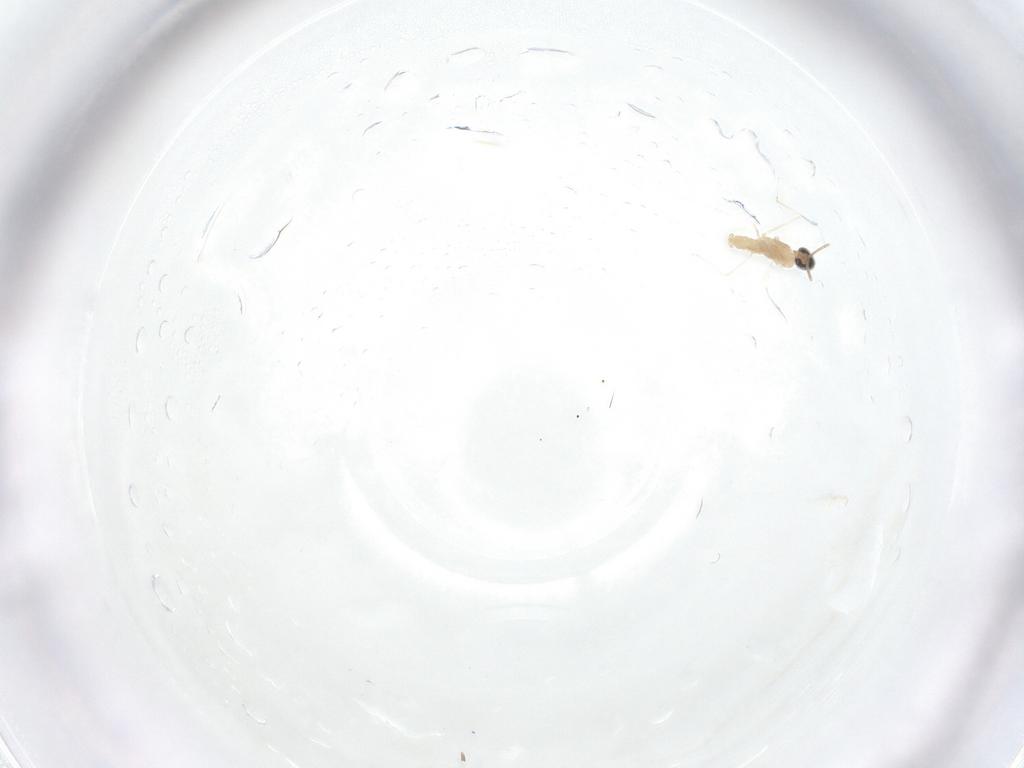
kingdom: Animalia
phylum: Arthropoda
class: Insecta
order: Diptera
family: Cecidomyiidae
